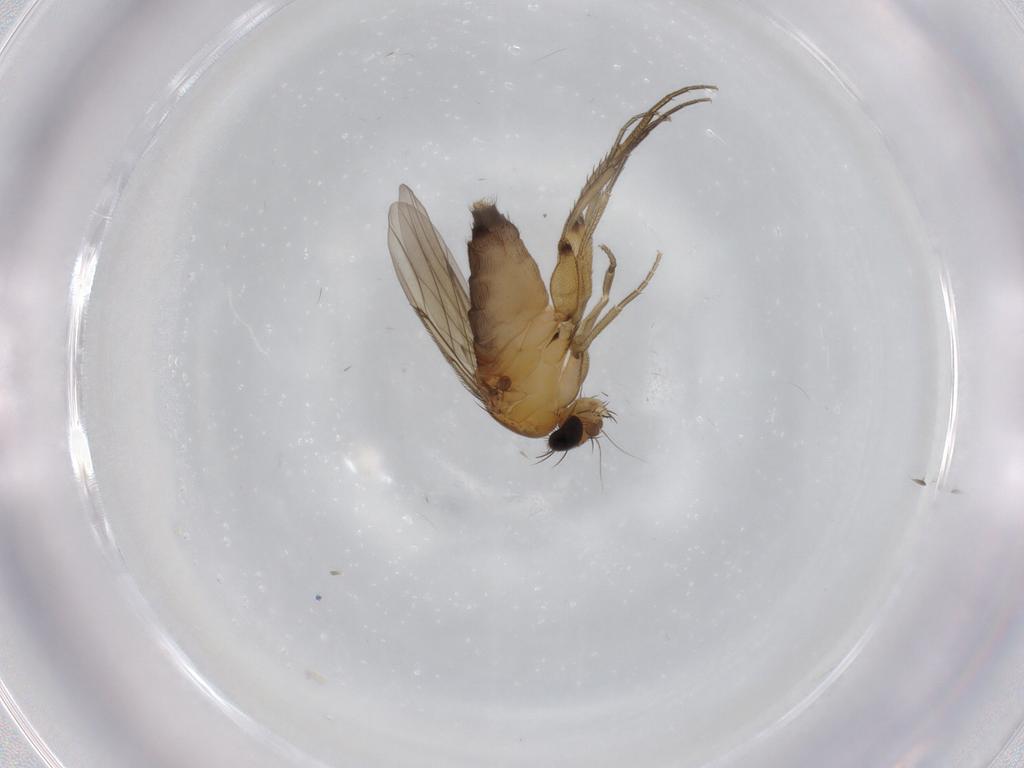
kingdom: Animalia
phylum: Arthropoda
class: Insecta
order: Diptera
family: Phoridae
